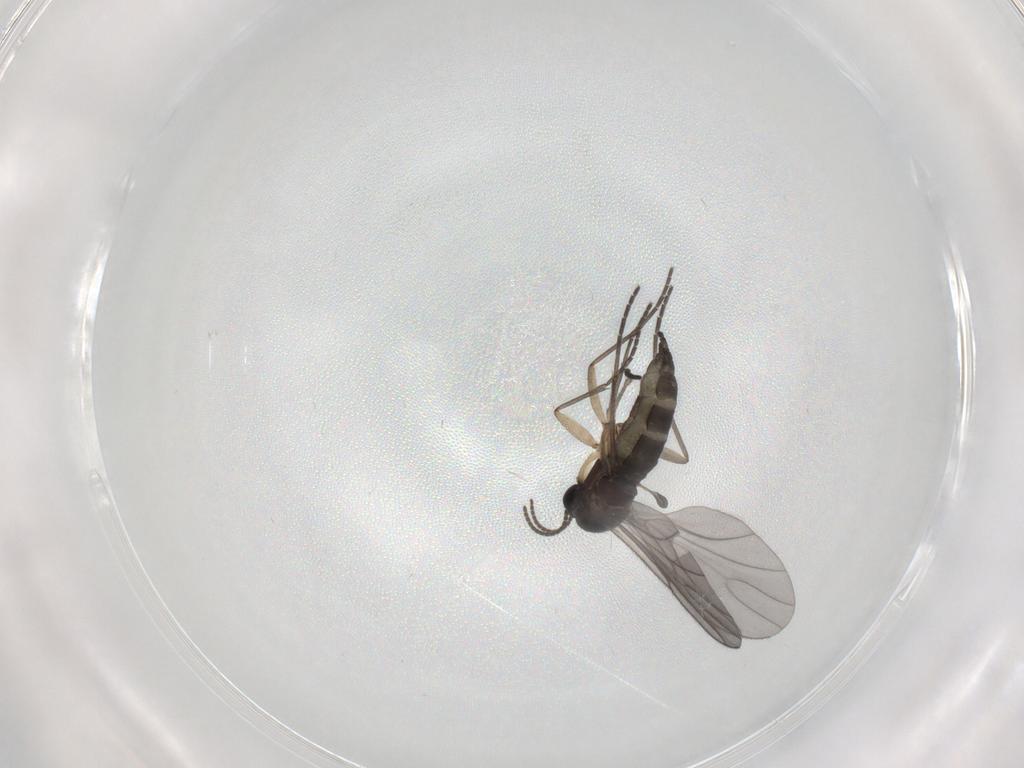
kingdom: Animalia
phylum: Arthropoda
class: Insecta
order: Diptera
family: Sciaridae
